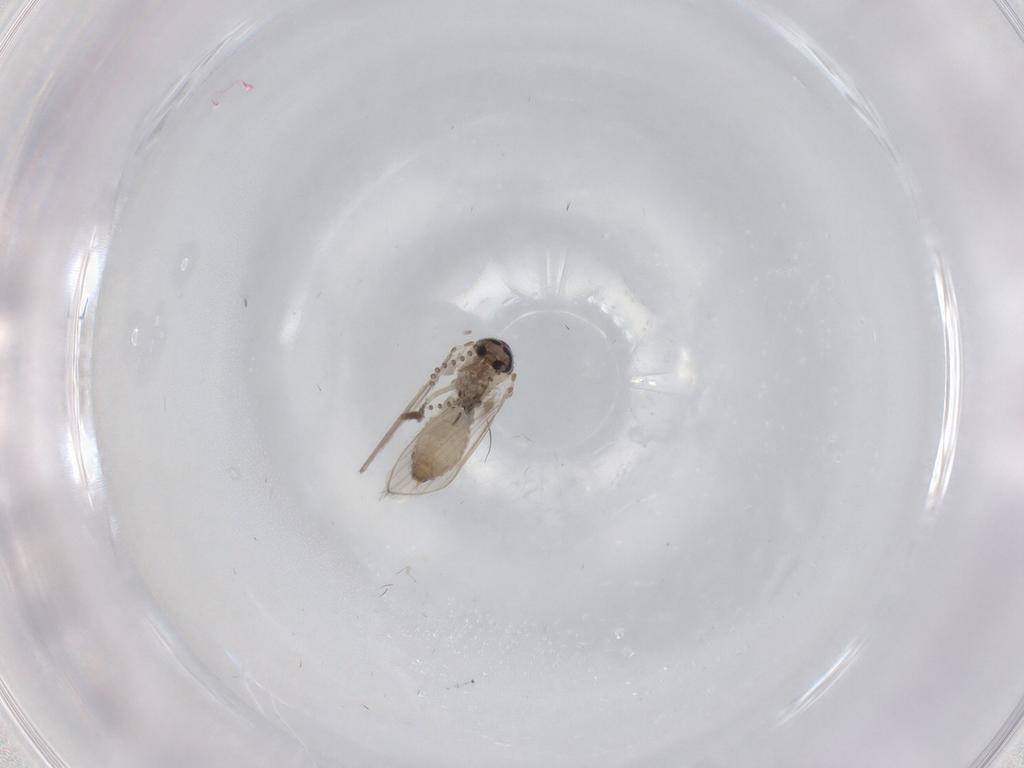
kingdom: Animalia
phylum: Arthropoda
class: Insecta
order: Diptera
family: Psychodidae
